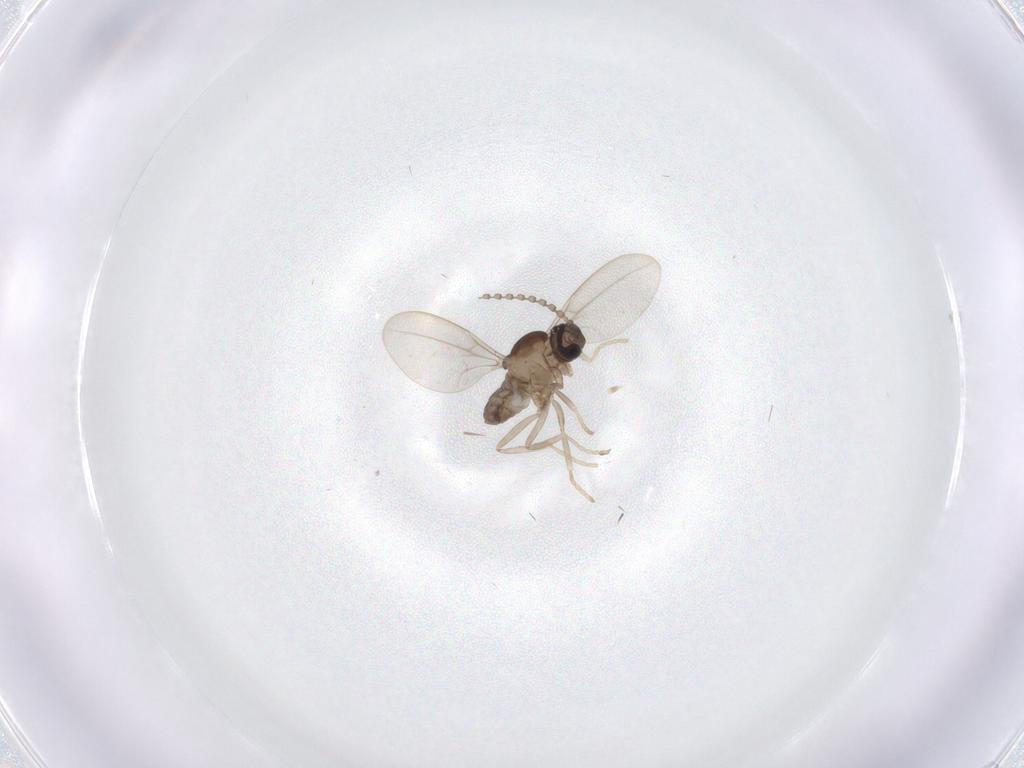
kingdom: Animalia
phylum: Arthropoda
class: Insecta
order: Diptera
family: Cecidomyiidae
